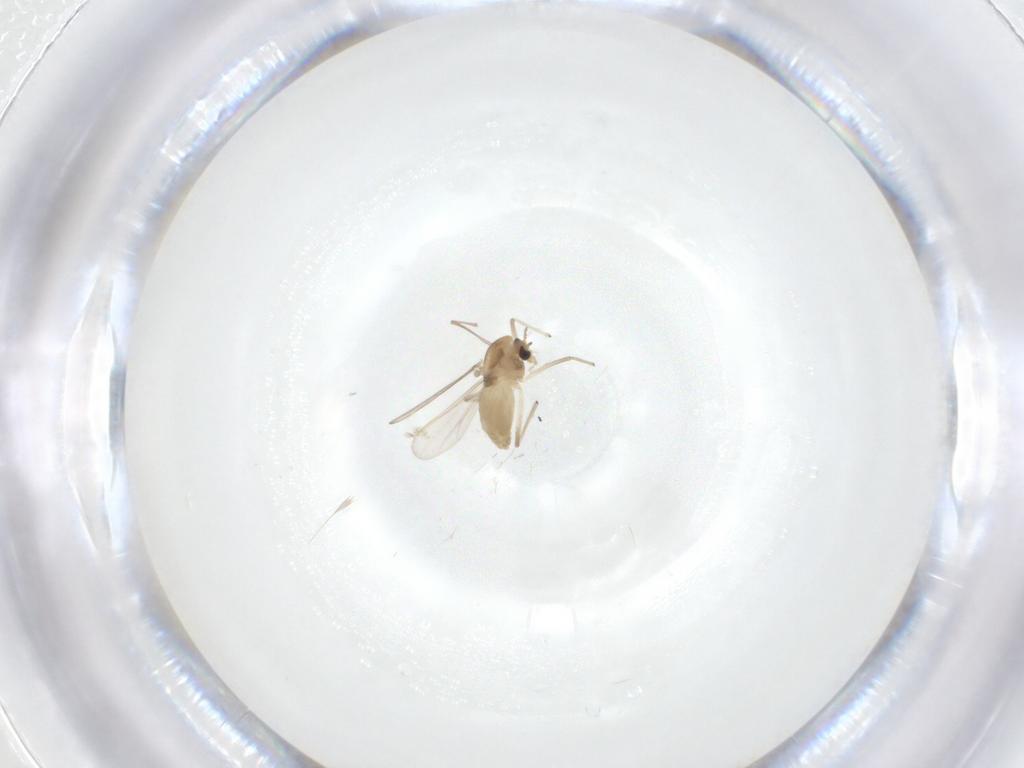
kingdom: Animalia
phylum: Arthropoda
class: Insecta
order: Diptera
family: Chironomidae
